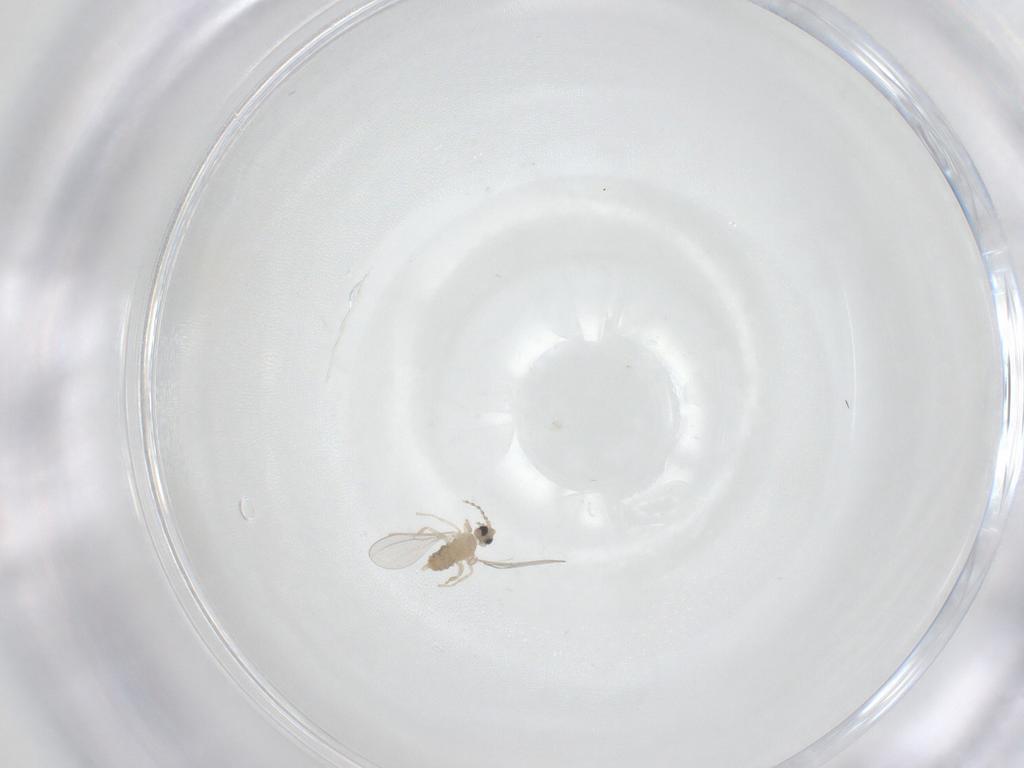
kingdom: Animalia
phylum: Arthropoda
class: Insecta
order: Diptera
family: Cecidomyiidae
